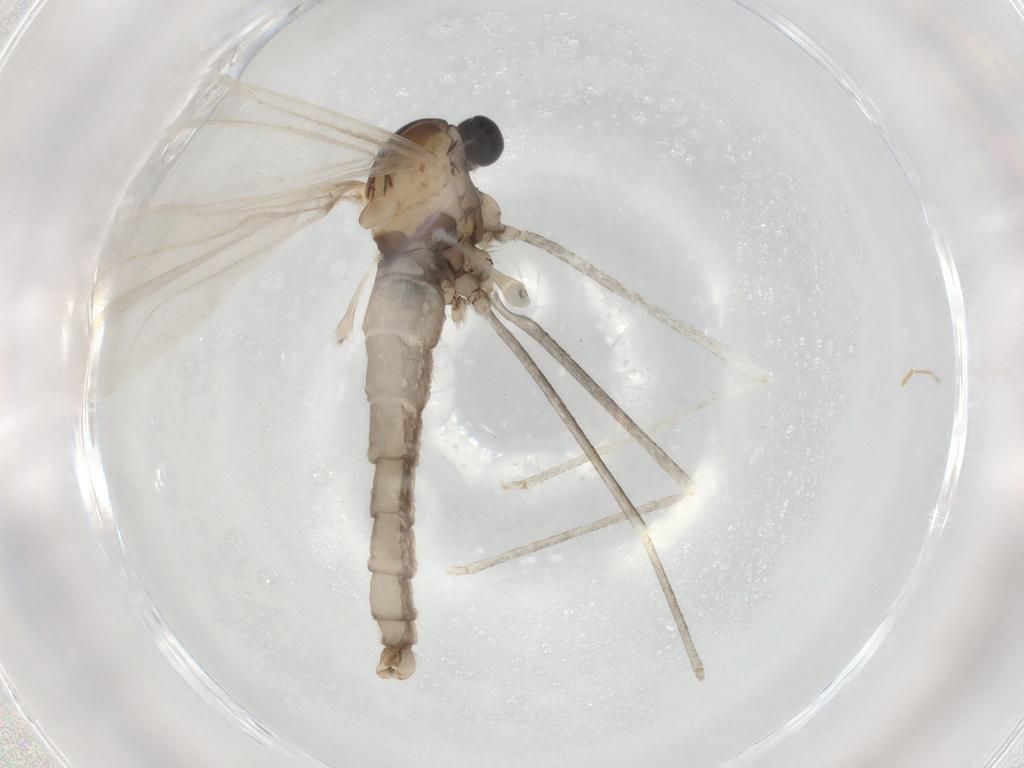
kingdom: Animalia
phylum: Arthropoda
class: Insecta
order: Diptera
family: Cecidomyiidae
